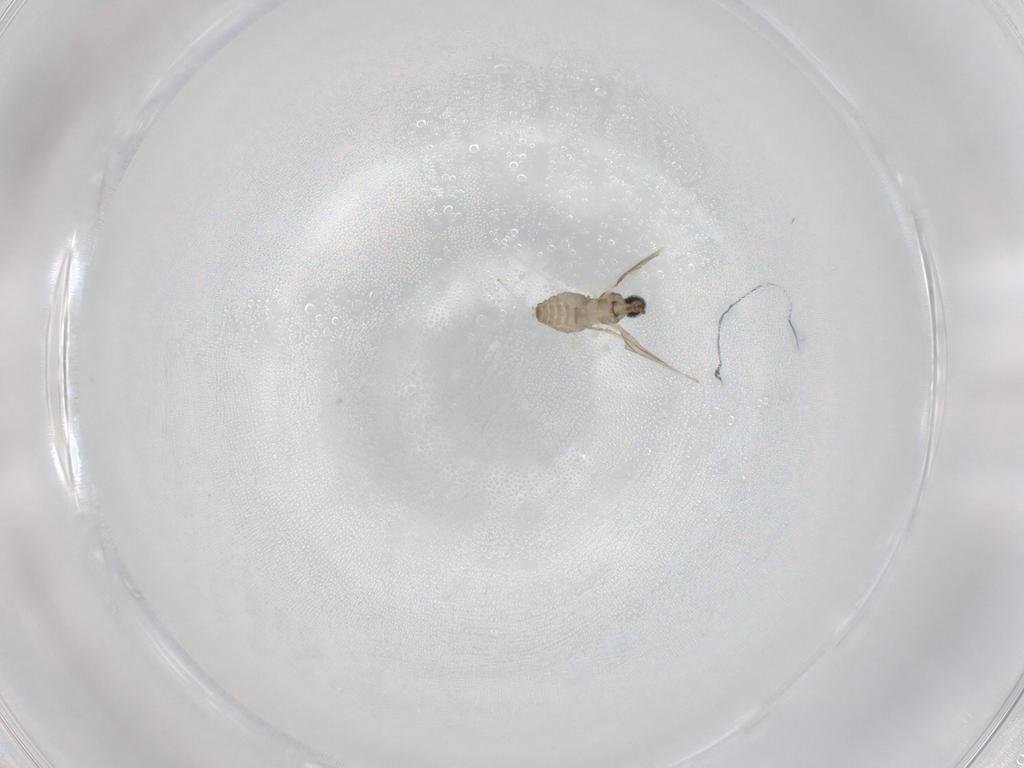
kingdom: Animalia
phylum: Arthropoda
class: Insecta
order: Diptera
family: Cecidomyiidae
